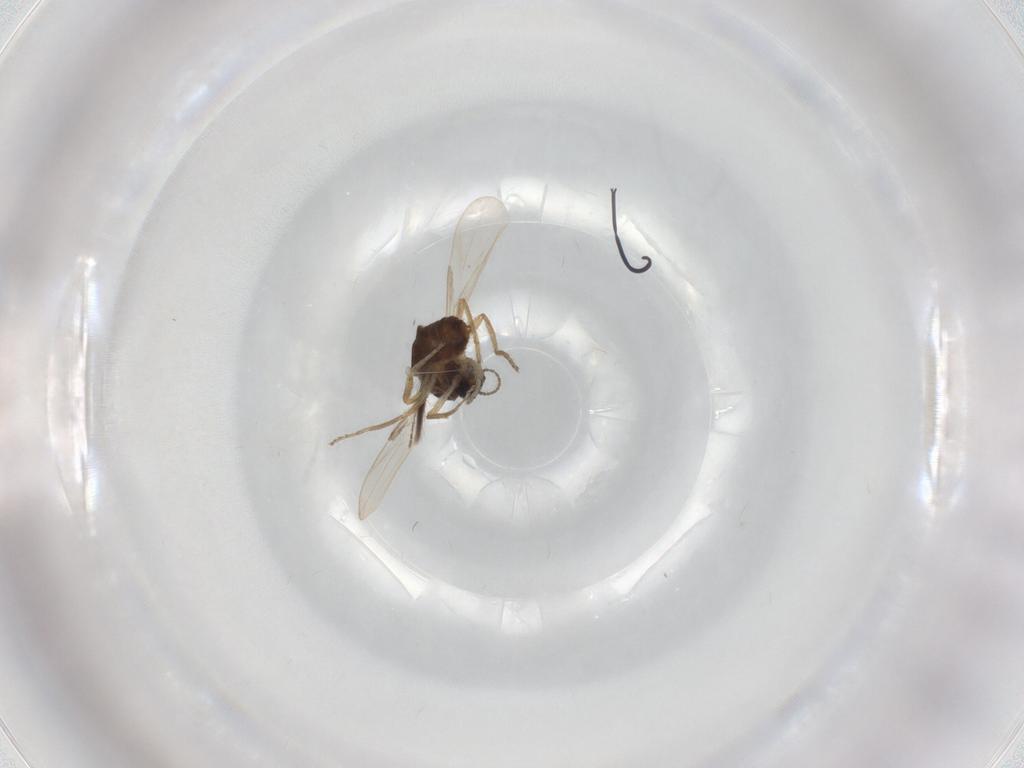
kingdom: Animalia
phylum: Arthropoda
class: Insecta
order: Diptera
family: Ceratopogonidae
